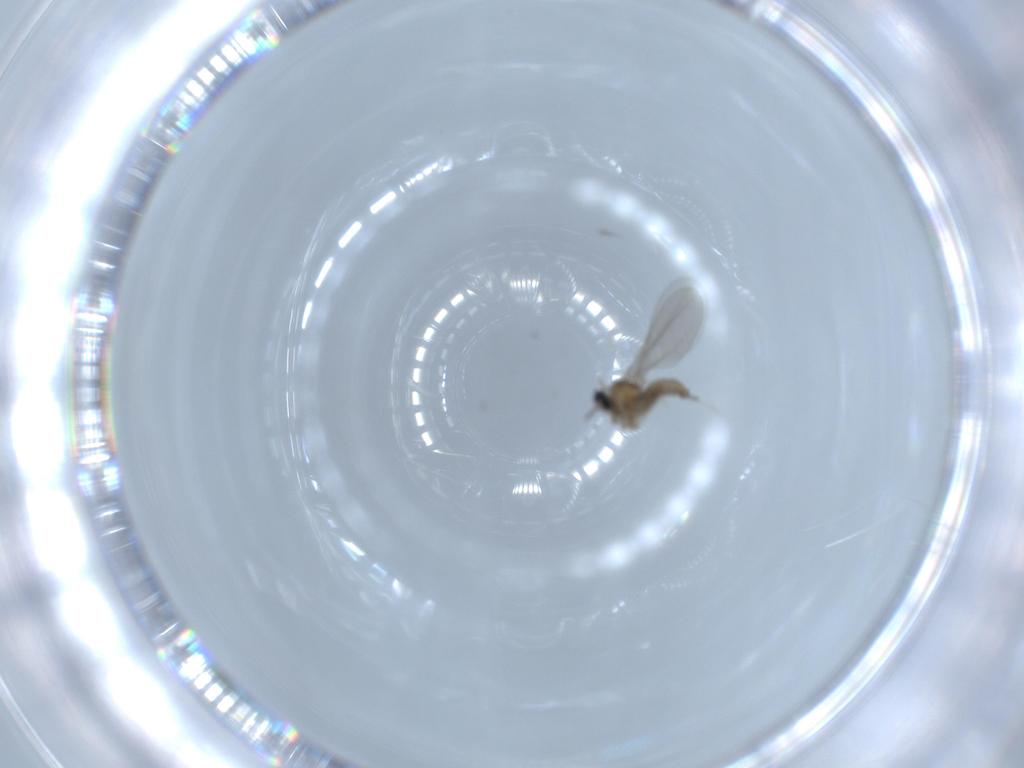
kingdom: Animalia
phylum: Arthropoda
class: Insecta
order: Diptera
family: Cecidomyiidae
